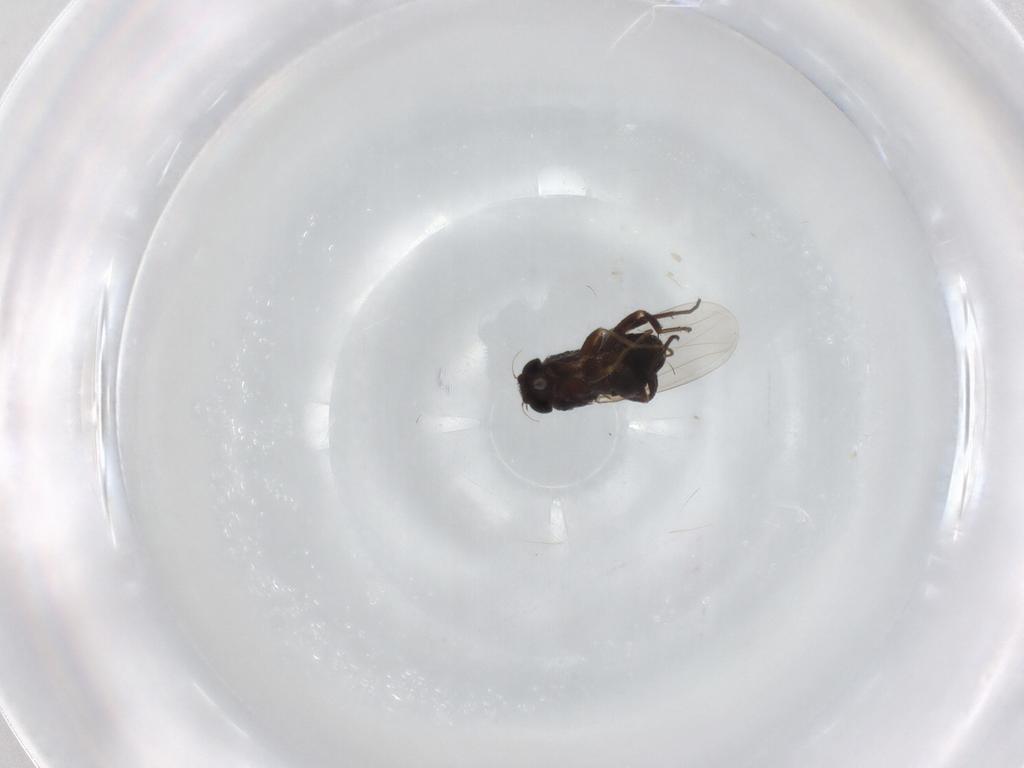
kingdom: Animalia
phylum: Arthropoda
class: Insecta
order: Diptera
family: Phoridae
